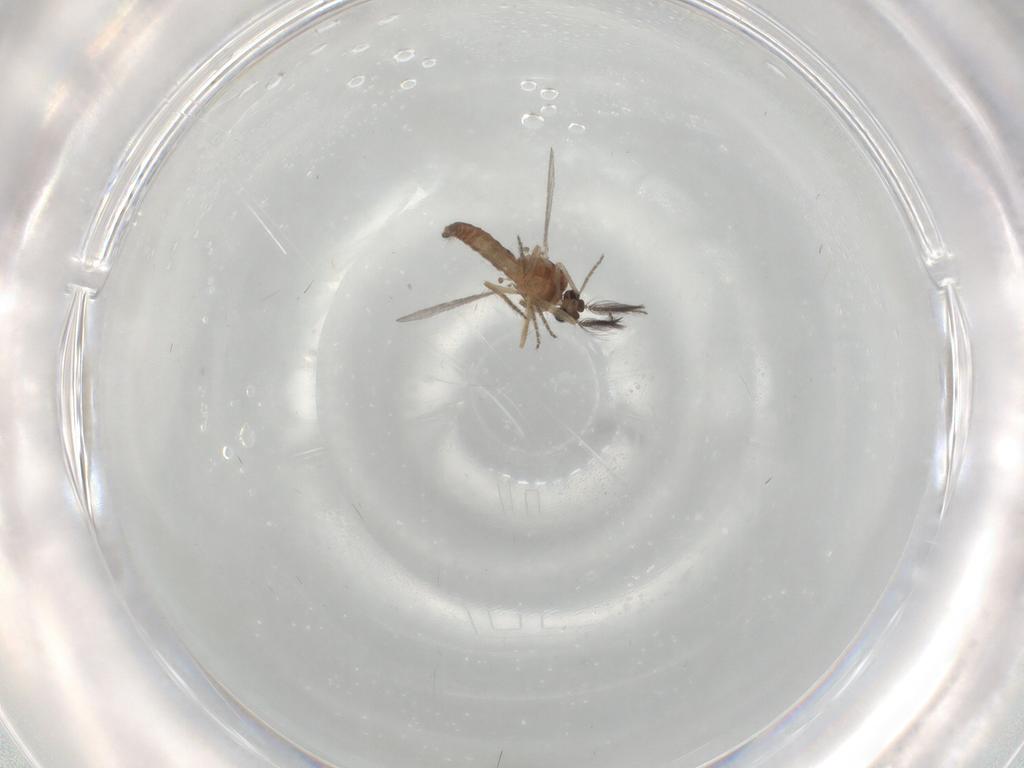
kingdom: Animalia
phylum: Arthropoda
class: Insecta
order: Diptera
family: Ceratopogonidae
